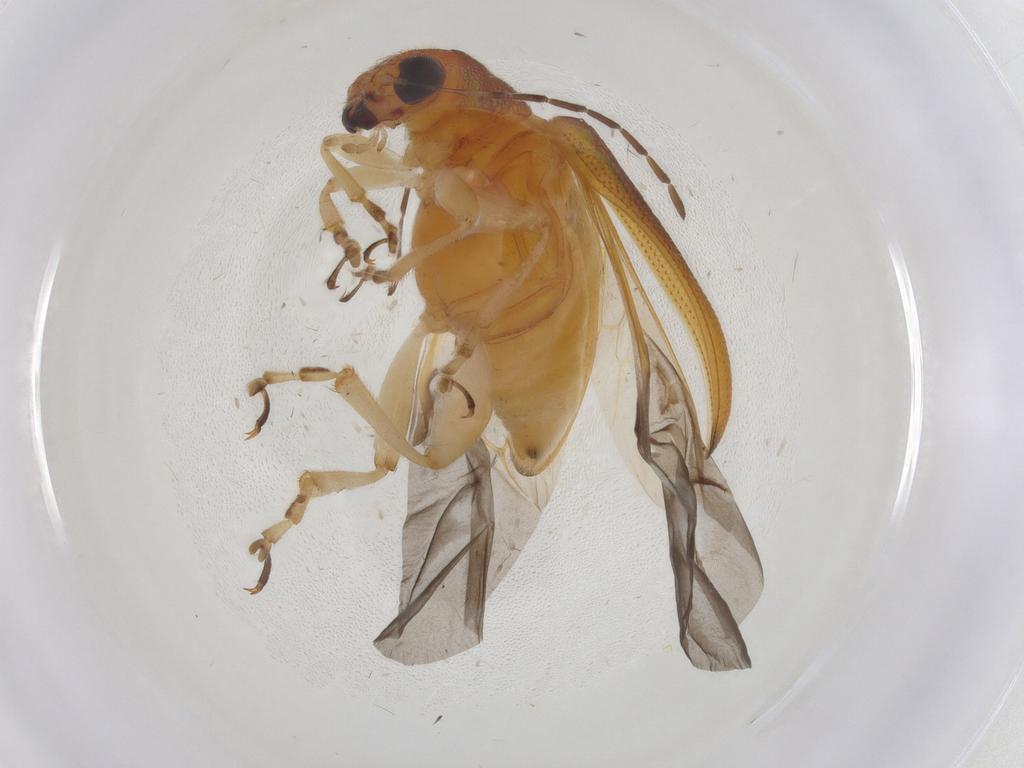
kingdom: Animalia
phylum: Arthropoda
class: Insecta
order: Coleoptera
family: Chrysomelidae
